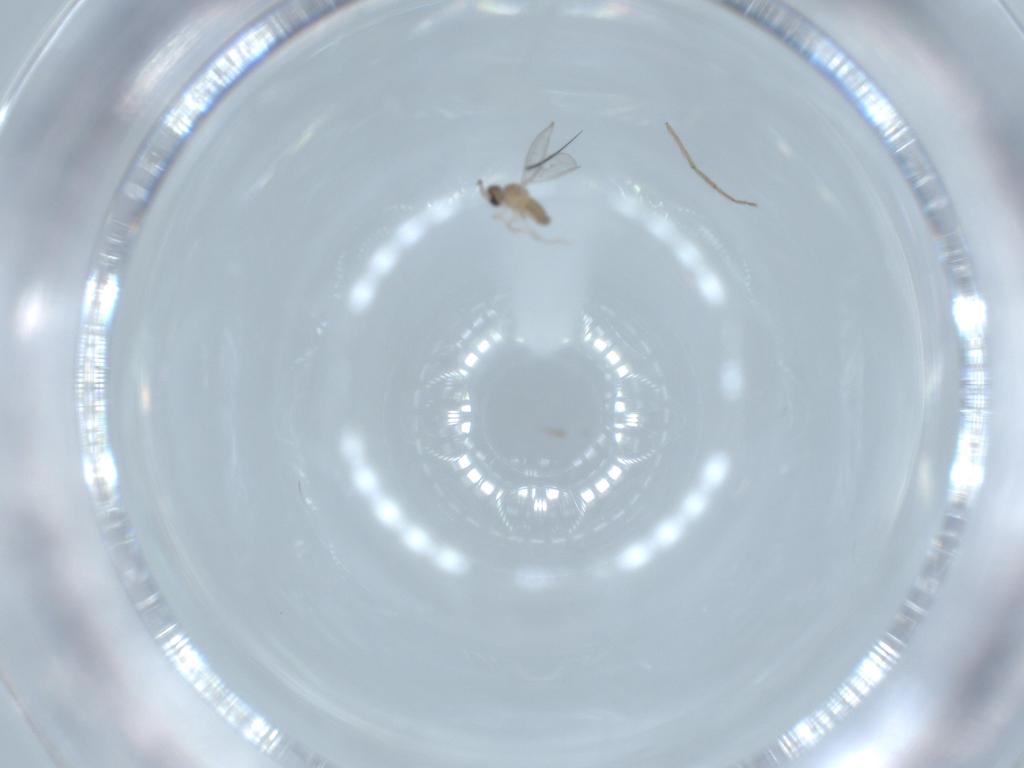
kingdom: Animalia
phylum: Arthropoda
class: Insecta
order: Diptera
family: Cecidomyiidae
